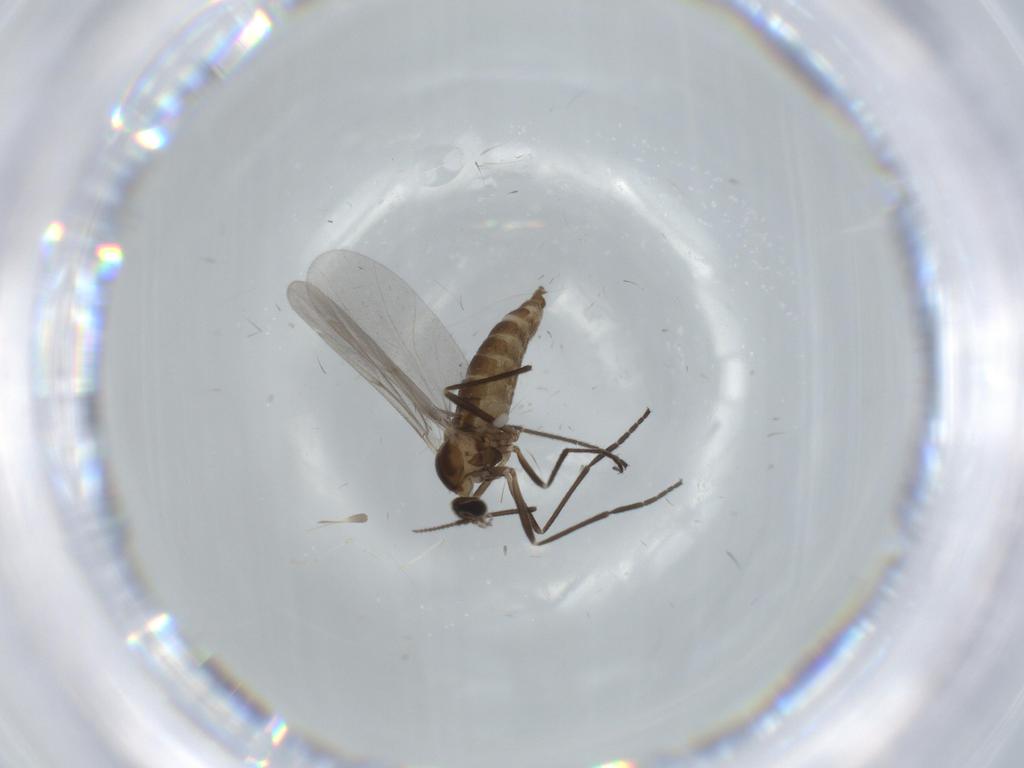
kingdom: Animalia
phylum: Arthropoda
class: Insecta
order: Diptera
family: Cecidomyiidae
